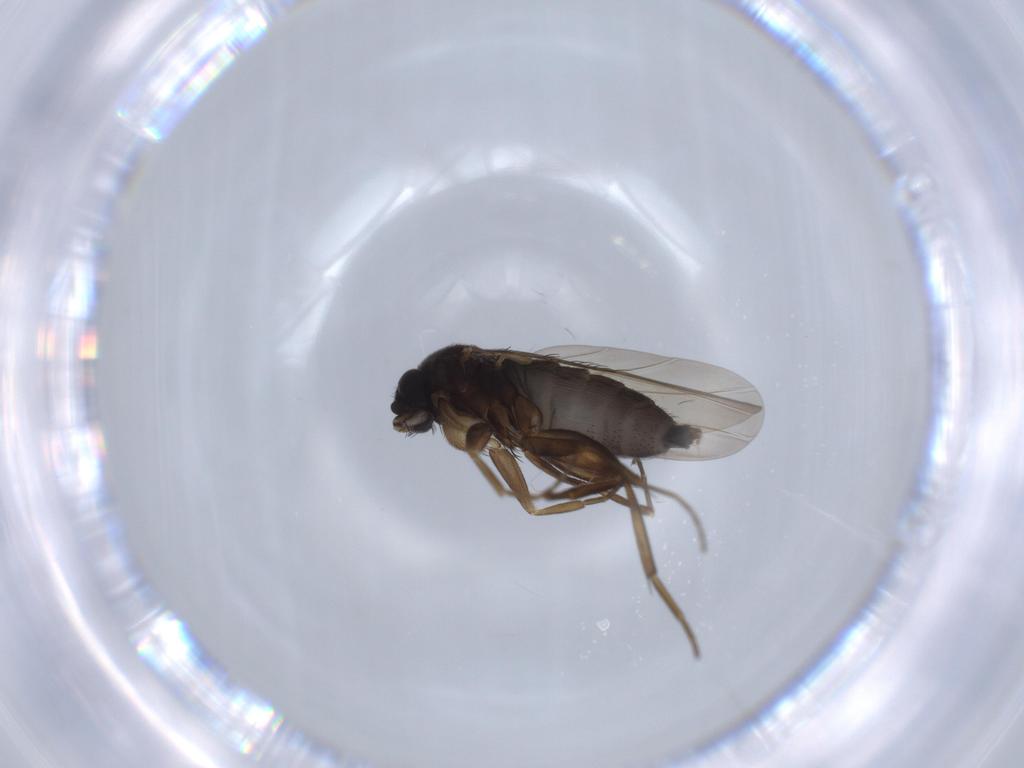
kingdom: Animalia
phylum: Arthropoda
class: Insecta
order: Diptera
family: Phoridae
